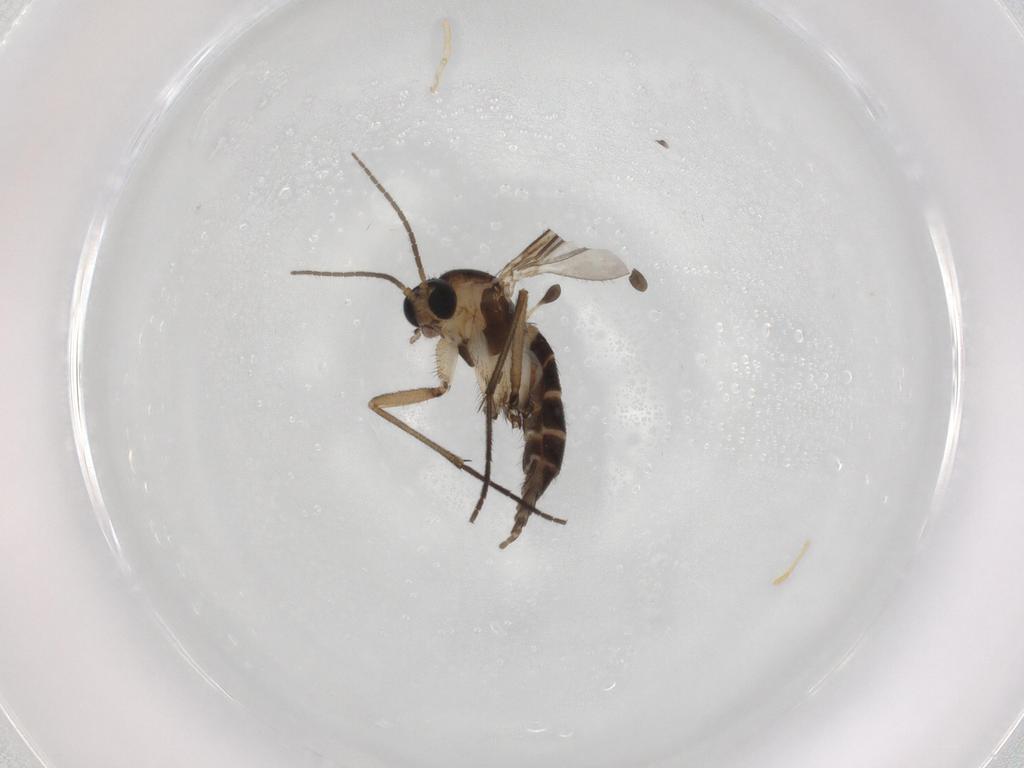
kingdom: Animalia
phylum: Arthropoda
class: Insecta
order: Diptera
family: Sciaridae
